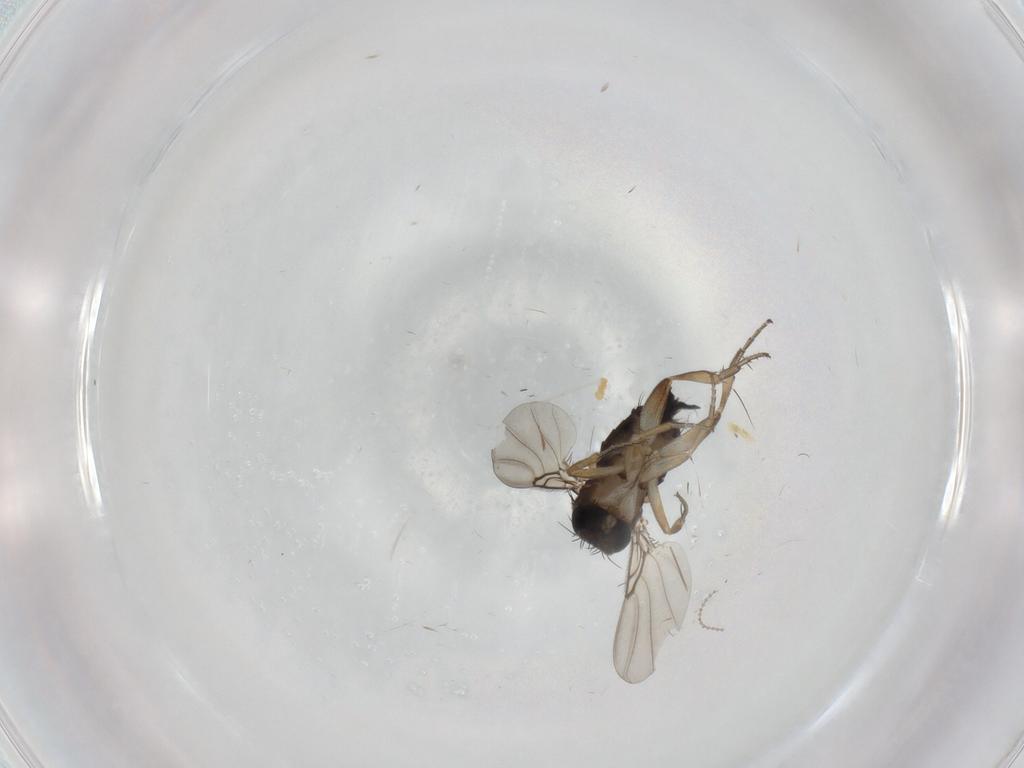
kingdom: Animalia
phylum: Arthropoda
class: Insecta
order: Diptera
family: Phoridae
